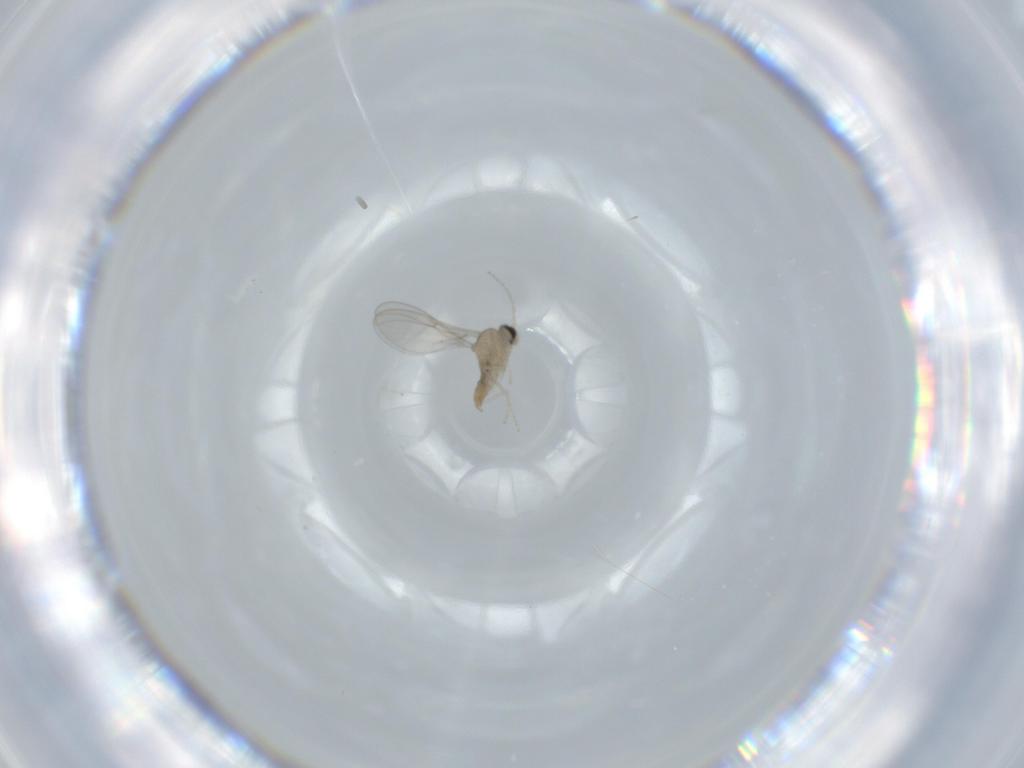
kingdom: Animalia
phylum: Arthropoda
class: Insecta
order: Diptera
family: Cecidomyiidae
